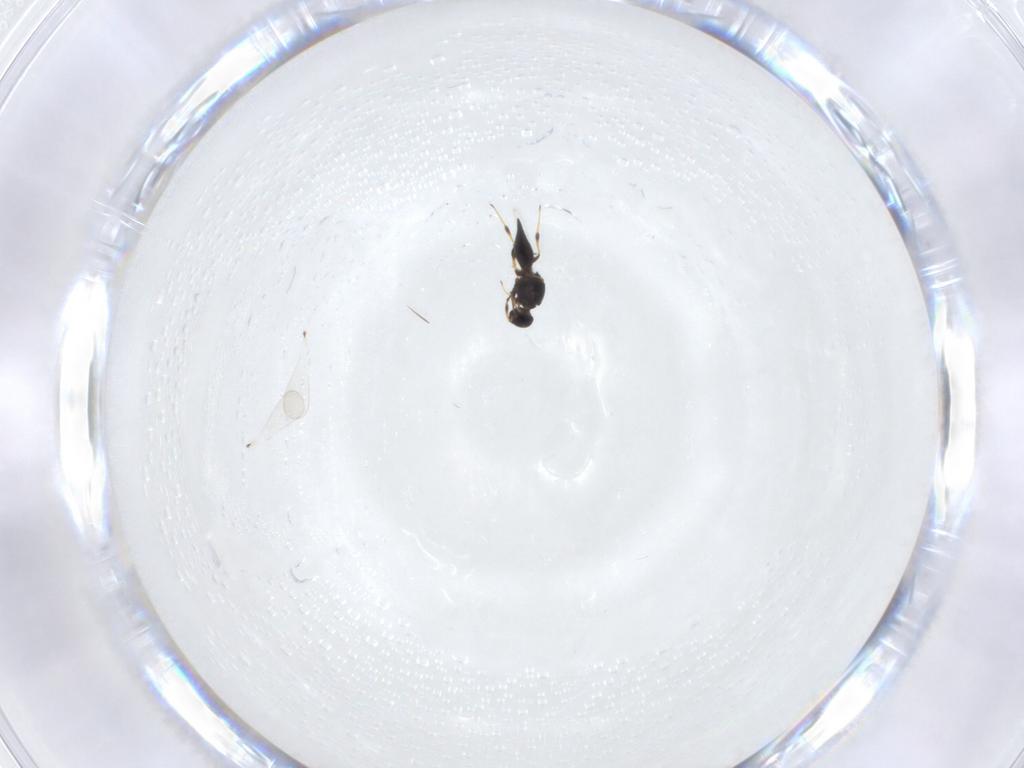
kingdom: Animalia
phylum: Arthropoda
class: Insecta
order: Hymenoptera
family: Platygastridae
